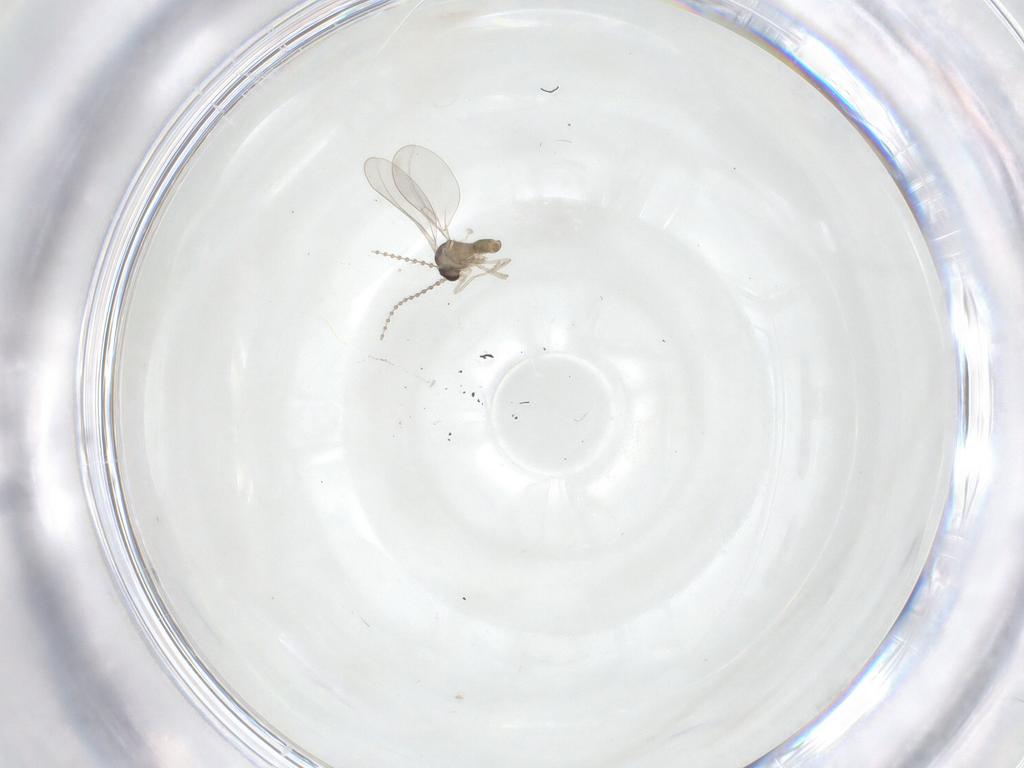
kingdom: Animalia
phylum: Arthropoda
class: Insecta
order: Diptera
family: Cecidomyiidae
